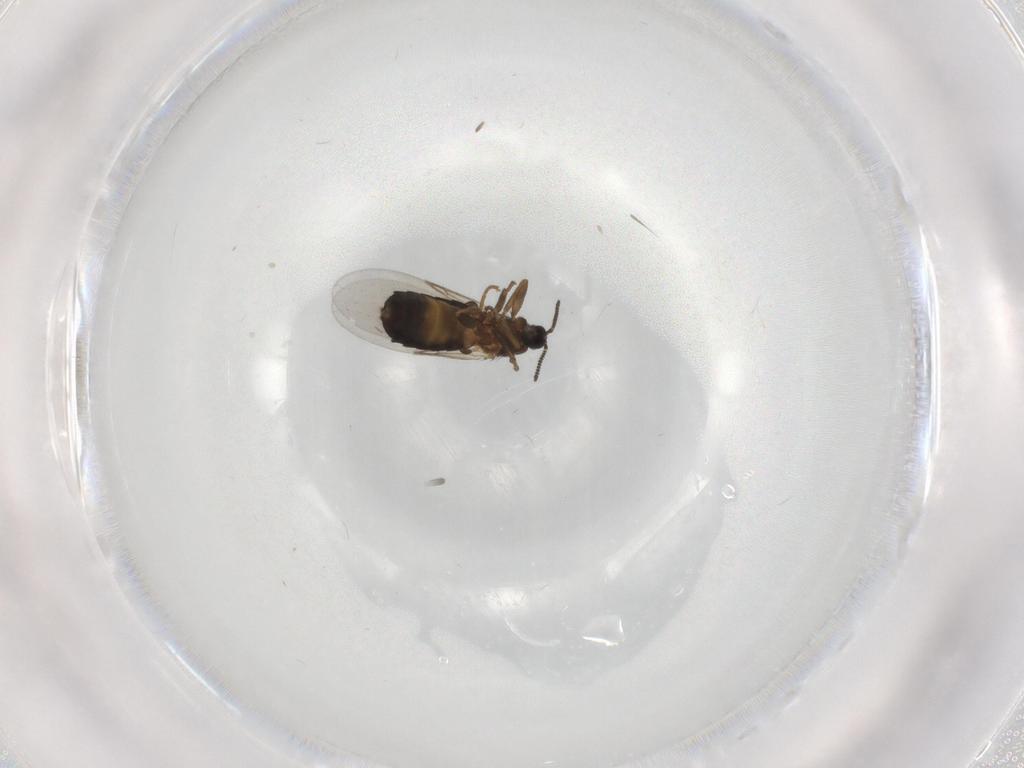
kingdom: Animalia
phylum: Arthropoda
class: Insecta
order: Diptera
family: Scatopsidae
